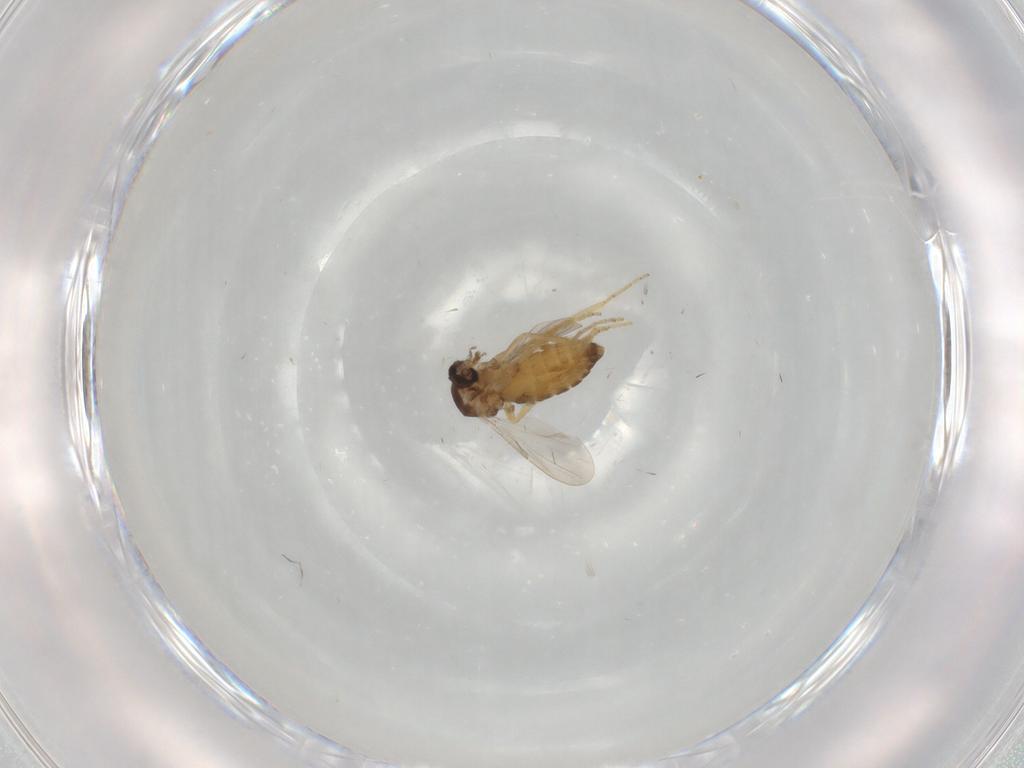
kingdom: Animalia
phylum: Arthropoda
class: Insecta
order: Diptera
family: Ceratopogonidae
